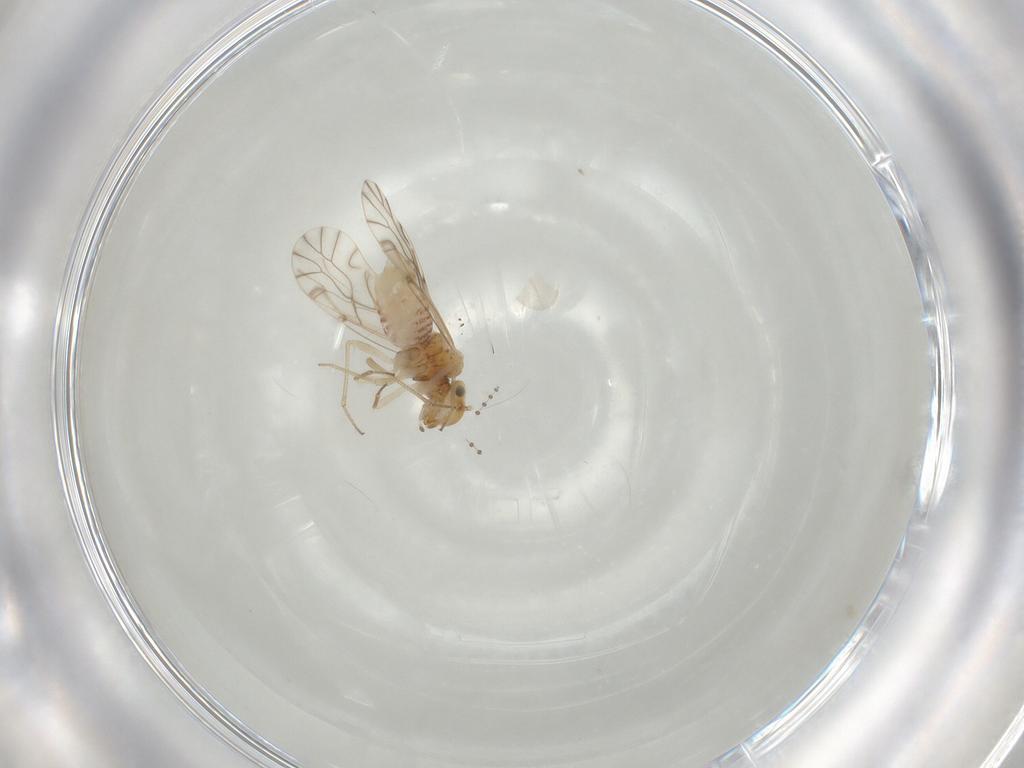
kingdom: Animalia
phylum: Arthropoda
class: Insecta
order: Psocodea
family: Lachesillidae
